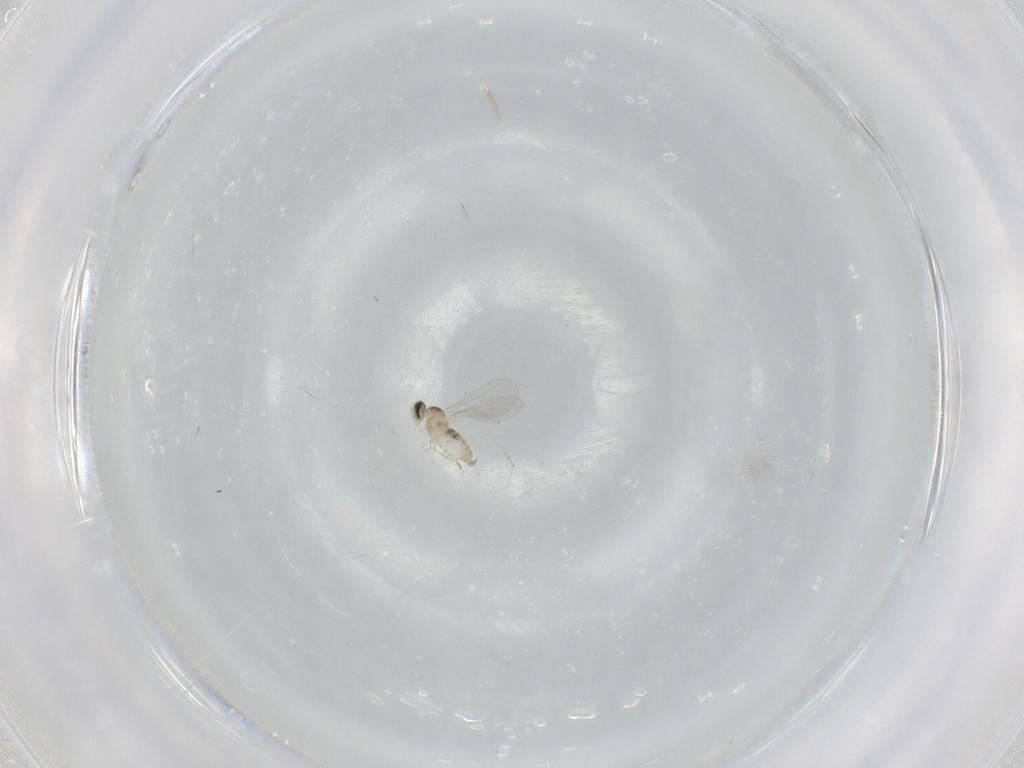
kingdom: Animalia
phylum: Arthropoda
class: Insecta
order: Diptera
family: Cecidomyiidae
